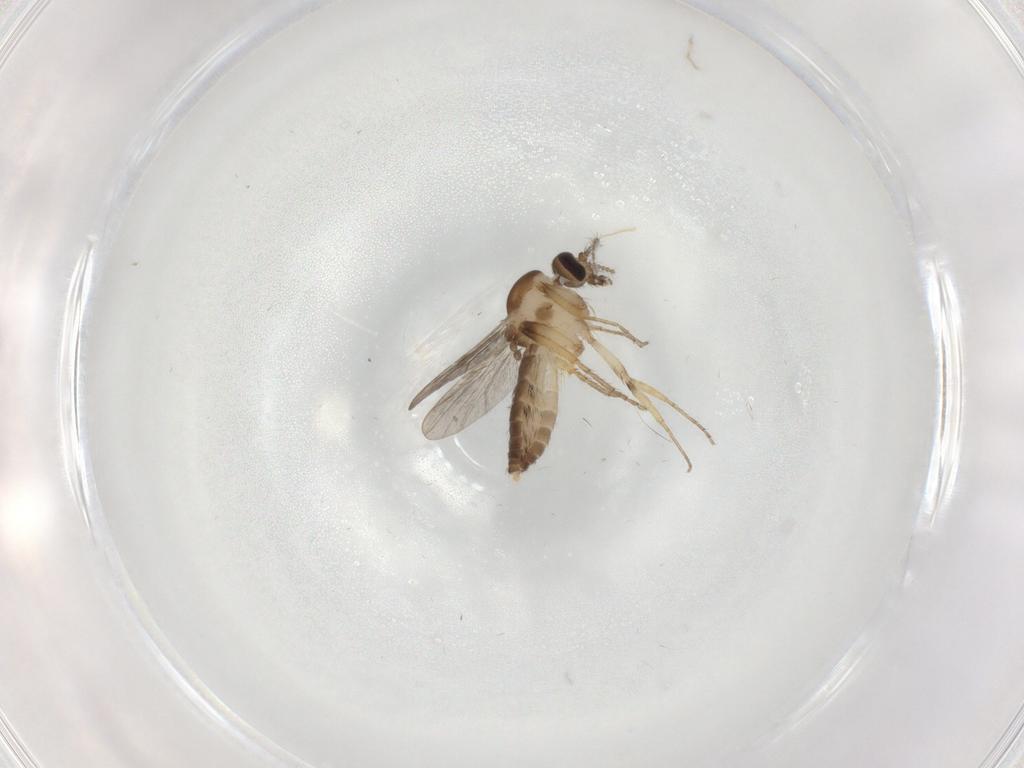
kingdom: Animalia
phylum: Arthropoda
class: Insecta
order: Diptera
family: Ceratopogonidae
